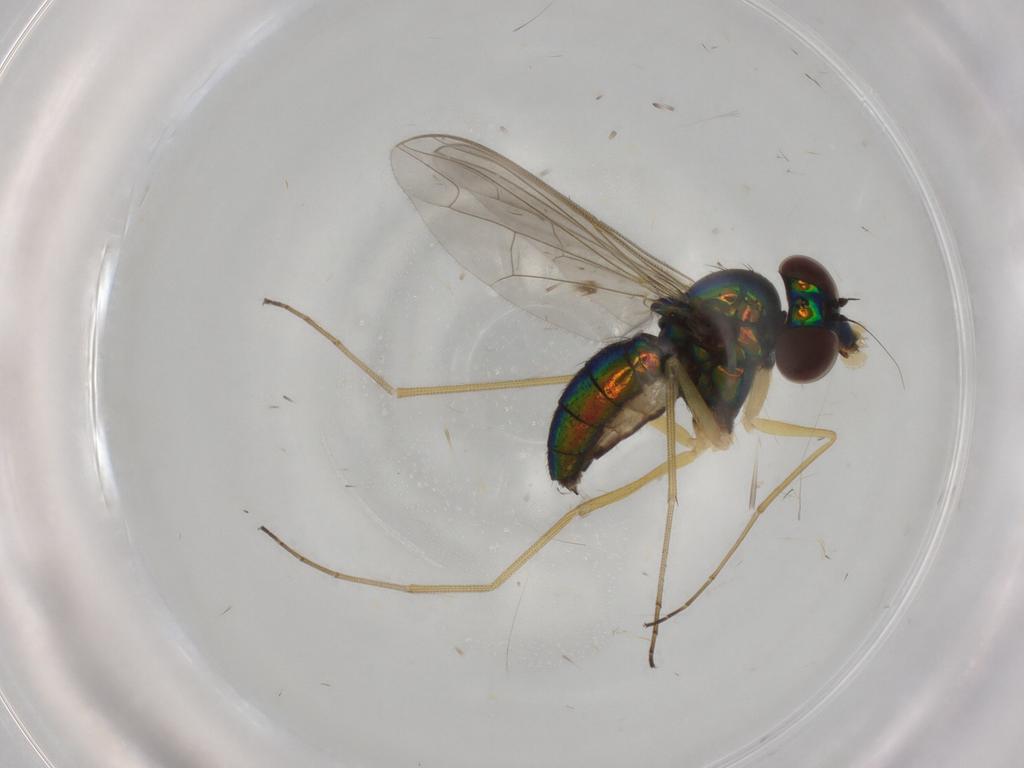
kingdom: Animalia
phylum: Arthropoda
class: Insecta
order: Diptera
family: Dolichopodidae
